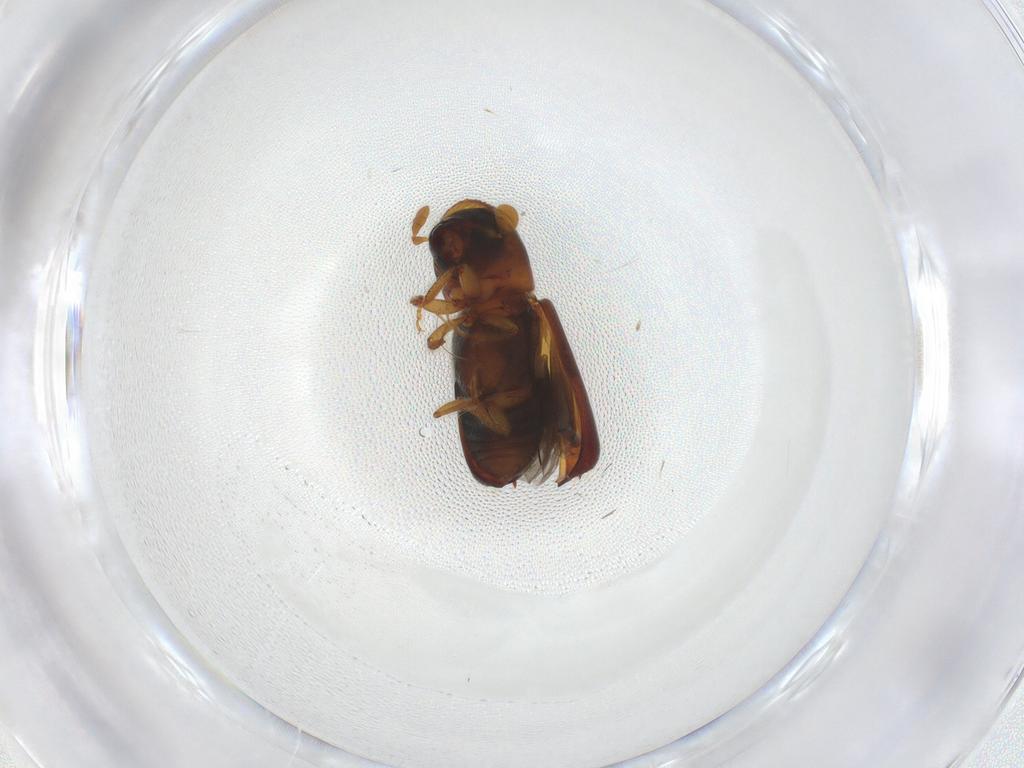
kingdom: Animalia
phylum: Arthropoda
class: Insecta
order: Coleoptera
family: Curculionidae
